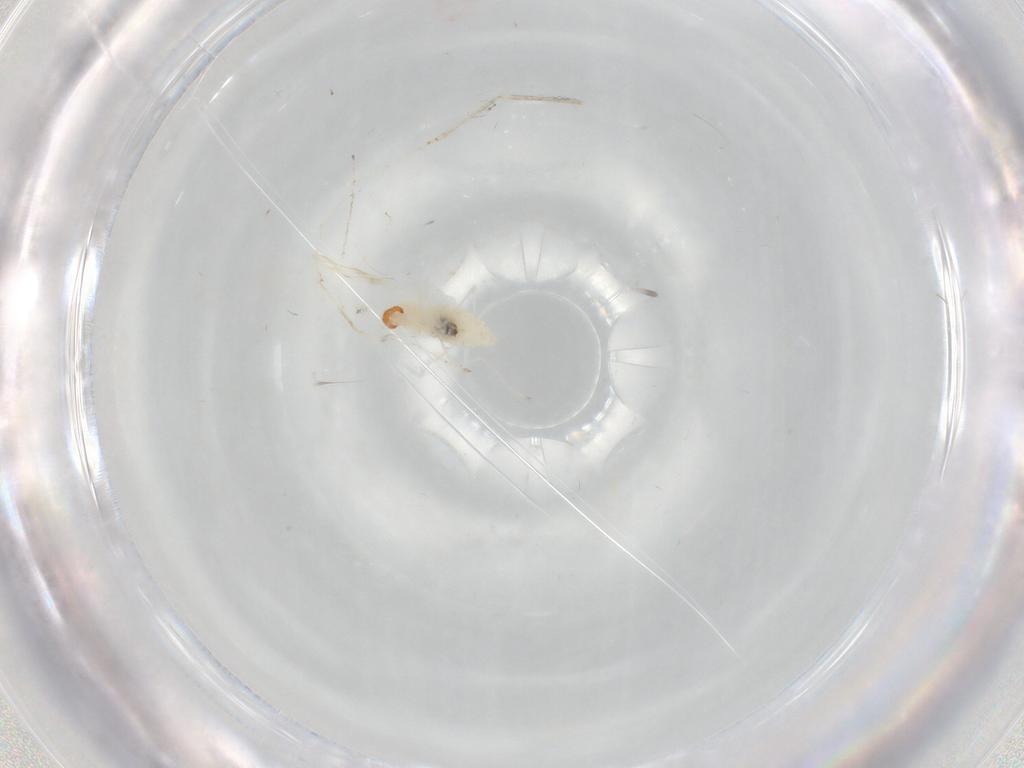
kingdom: Animalia
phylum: Arthropoda
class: Insecta
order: Diptera
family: Cecidomyiidae
